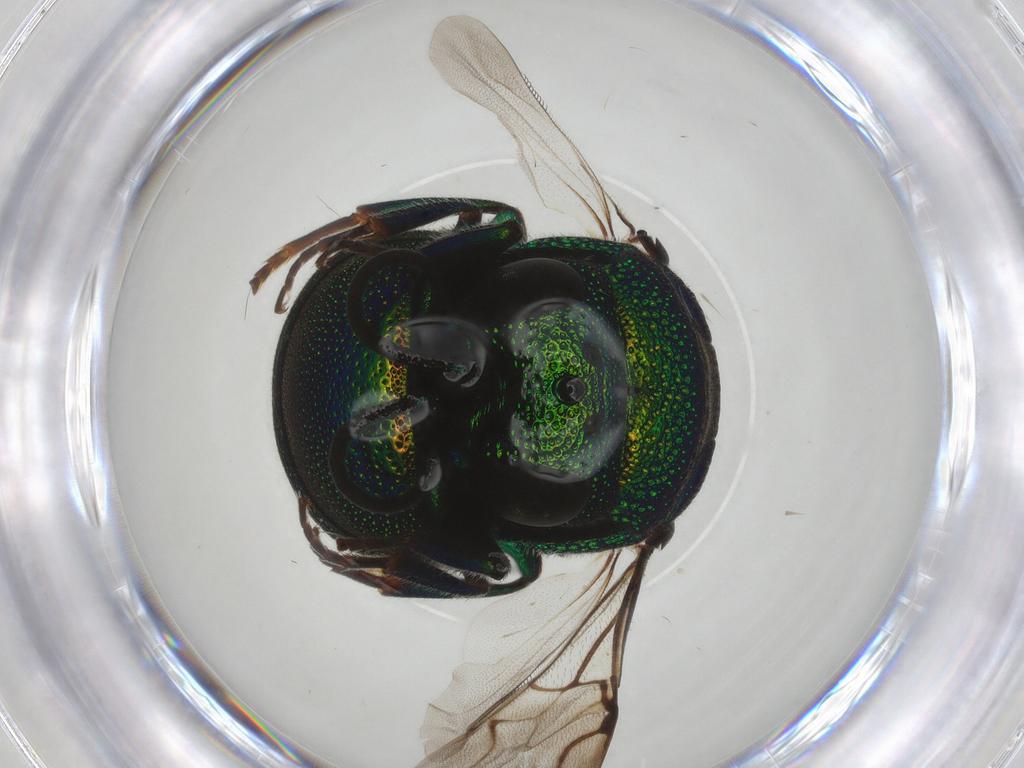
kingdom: Animalia
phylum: Arthropoda
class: Insecta
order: Hymenoptera
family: Chrysididae
